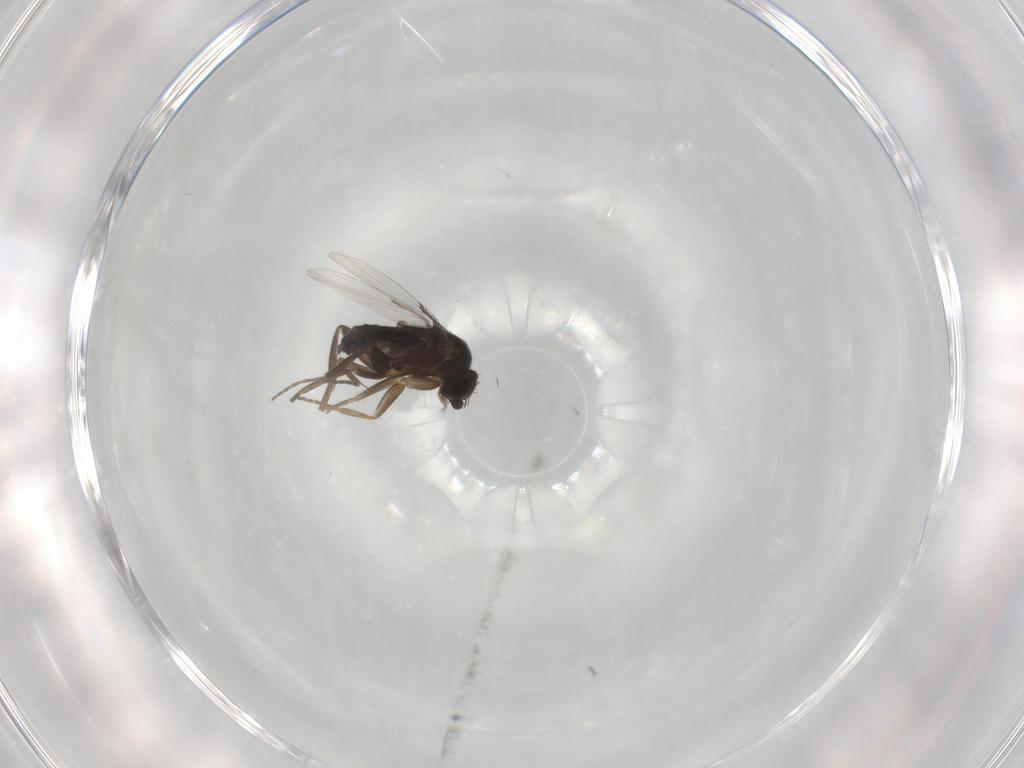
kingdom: Animalia
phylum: Arthropoda
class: Insecta
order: Diptera
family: Phoridae
